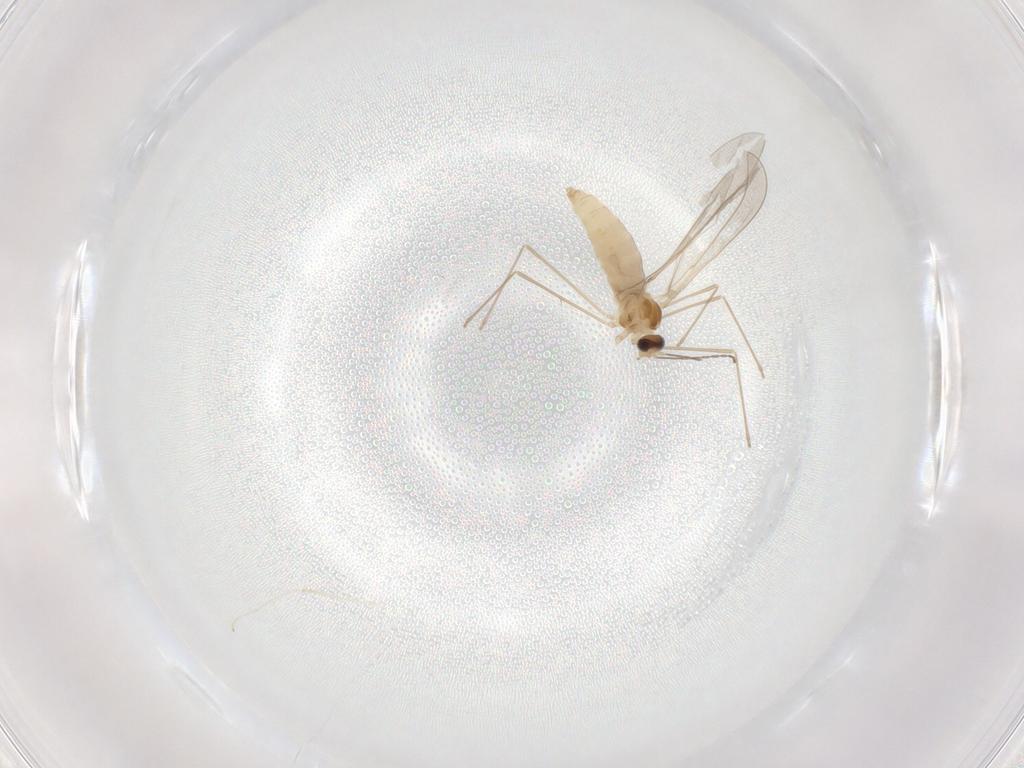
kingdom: Animalia
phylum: Arthropoda
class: Insecta
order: Diptera
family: Cecidomyiidae
